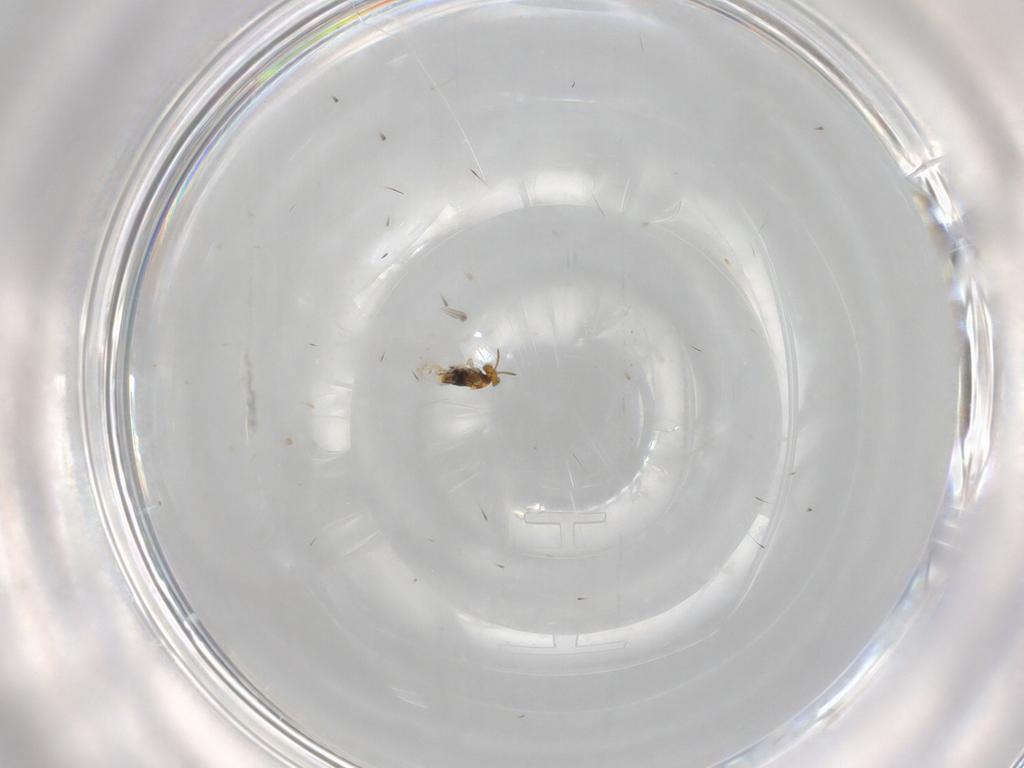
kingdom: Animalia
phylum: Arthropoda
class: Insecta
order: Hymenoptera
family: Aphelinidae
